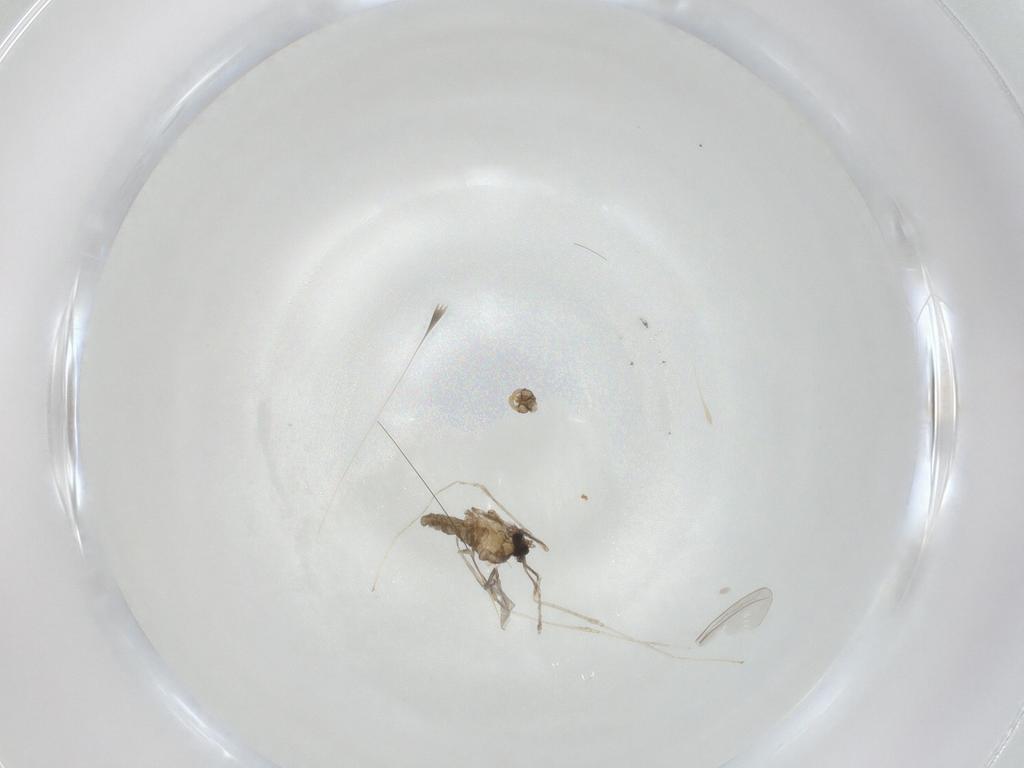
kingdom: Animalia
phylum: Arthropoda
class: Insecta
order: Diptera
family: Cecidomyiidae
